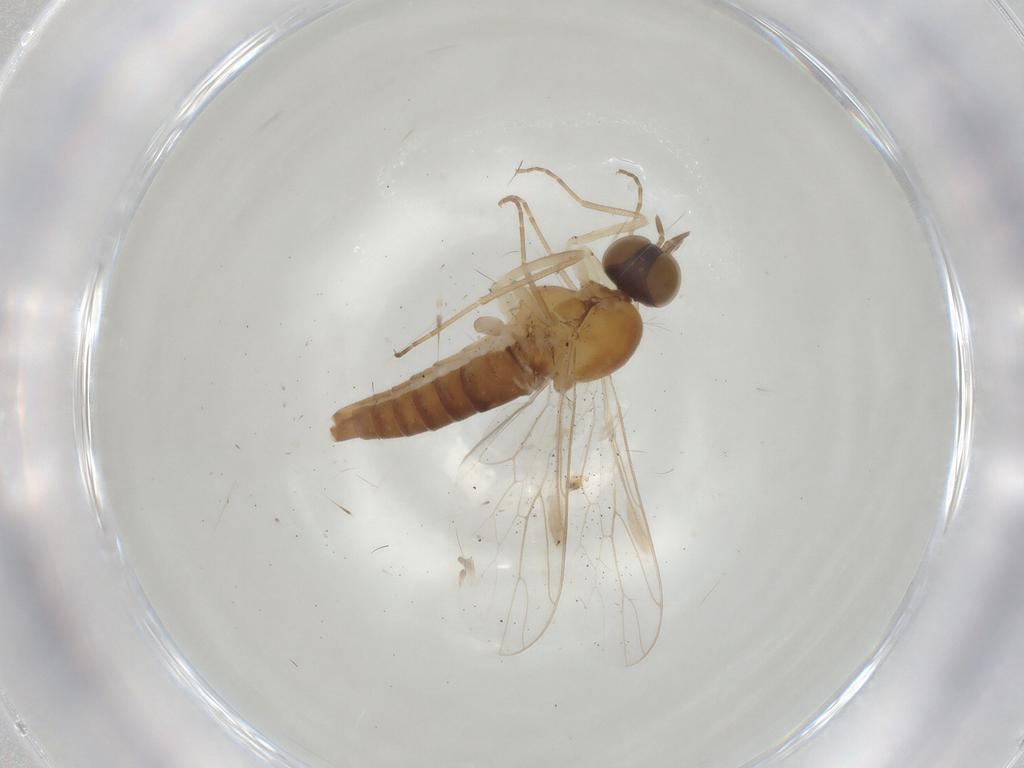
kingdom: Animalia
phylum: Arthropoda
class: Insecta
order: Diptera
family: Scenopinidae
